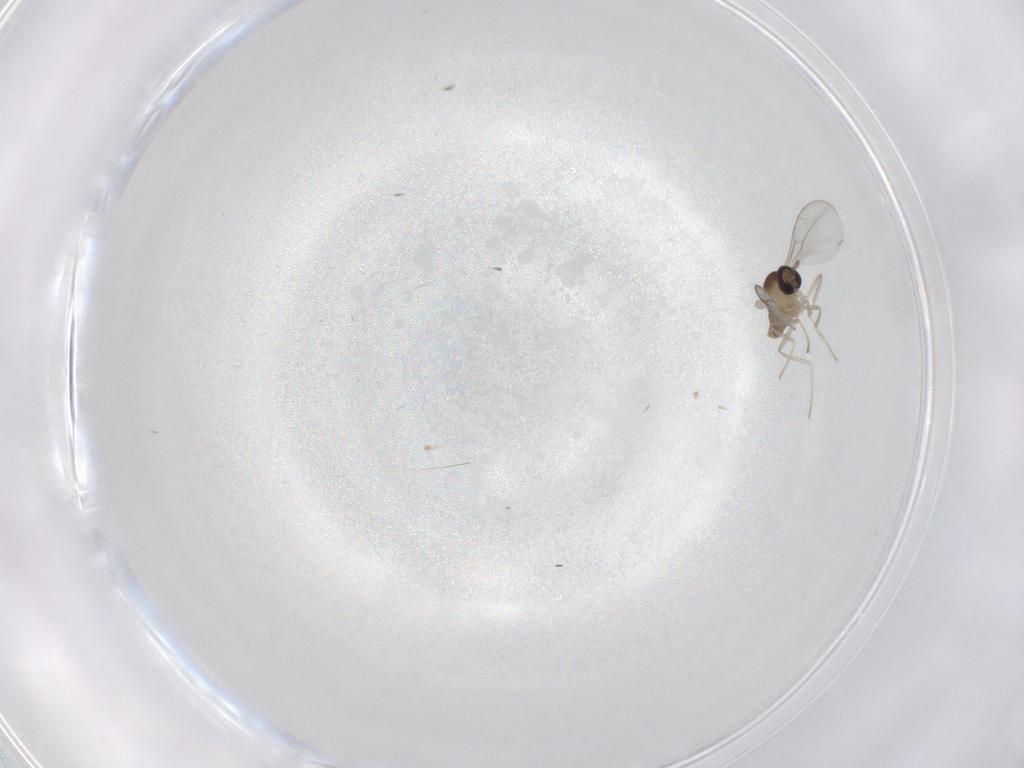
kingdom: Animalia
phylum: Arthropoda
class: Insecta
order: Diptera
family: Cecidomyiidae
